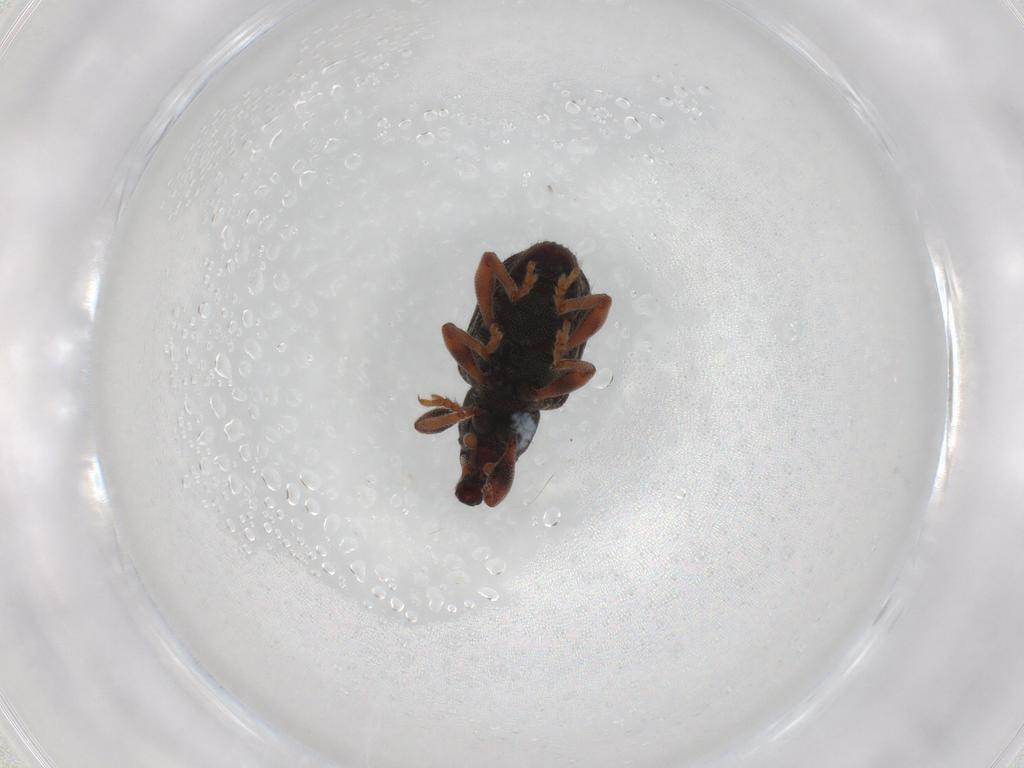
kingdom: Animalia
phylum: Arthropoda
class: Insecta
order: Coleoptera
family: Curculionidae
